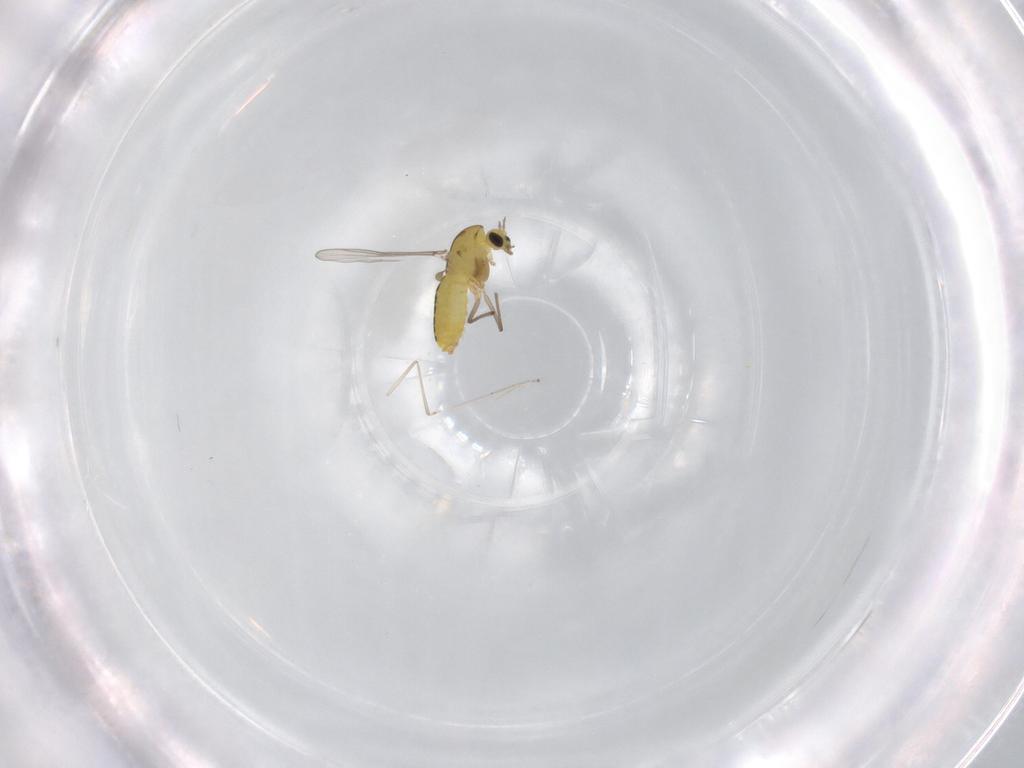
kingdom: Animalia
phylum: Arthropoda
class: Insecta
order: Diptera
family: Chironomidae
